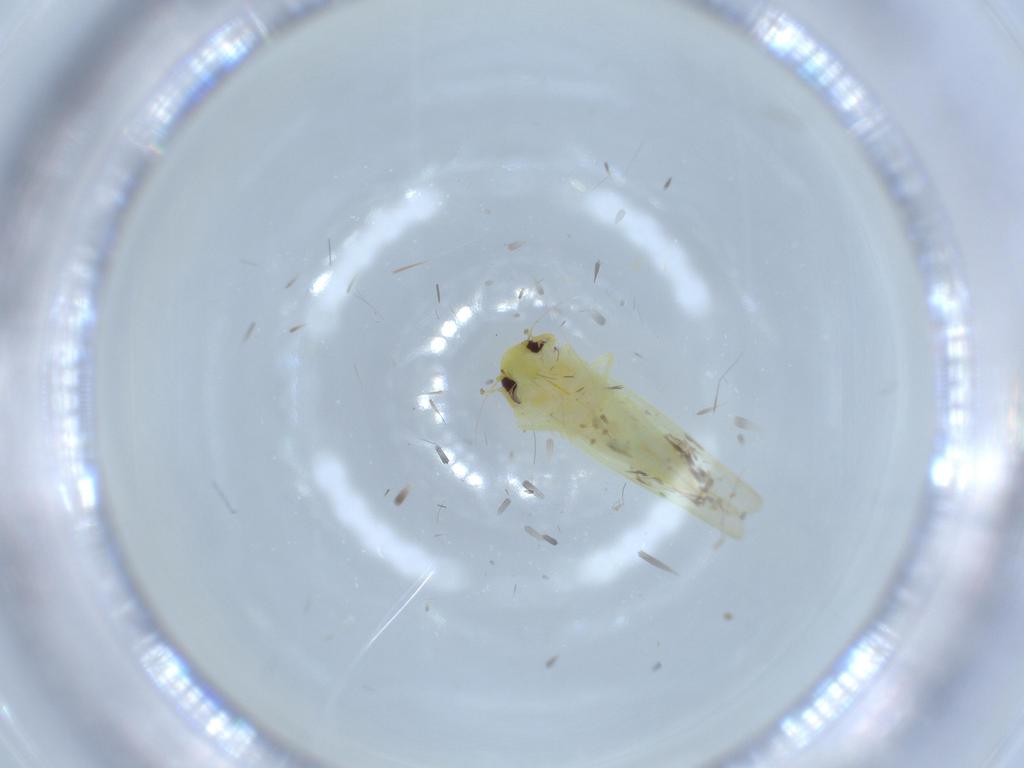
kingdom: Animalia
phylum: Arthropoda
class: Insecta
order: Hemiptera
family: Cicadellidae
